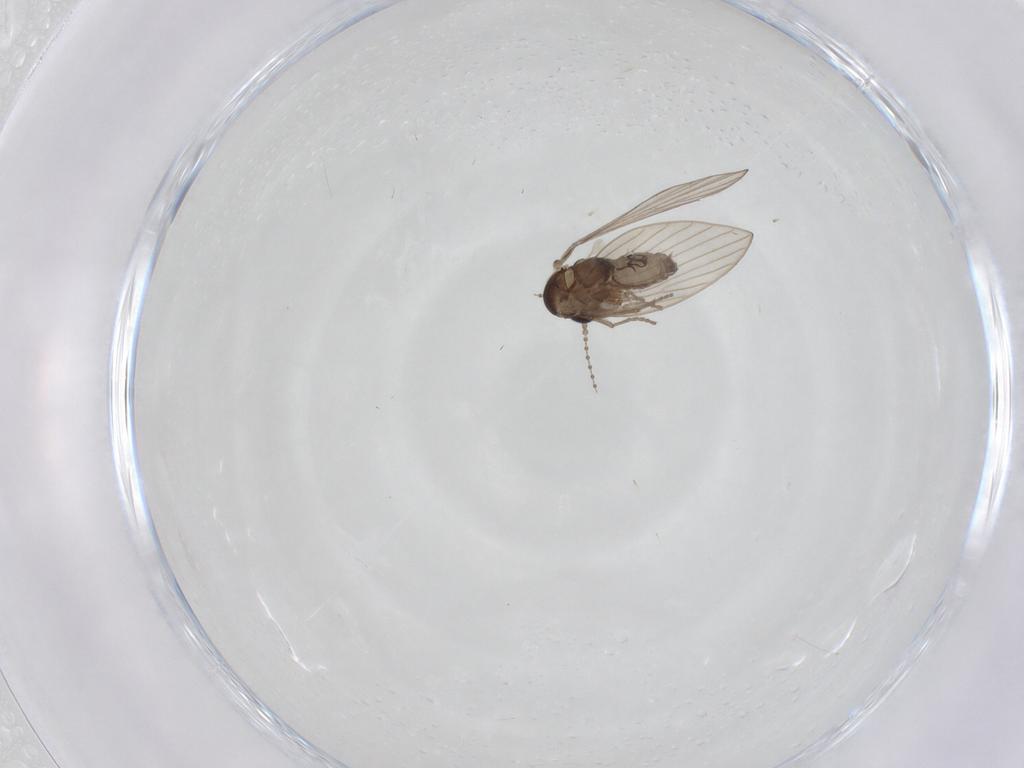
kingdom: Animalia
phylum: Arthropoda
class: Insecta
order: Diptera
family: Psychodidae
